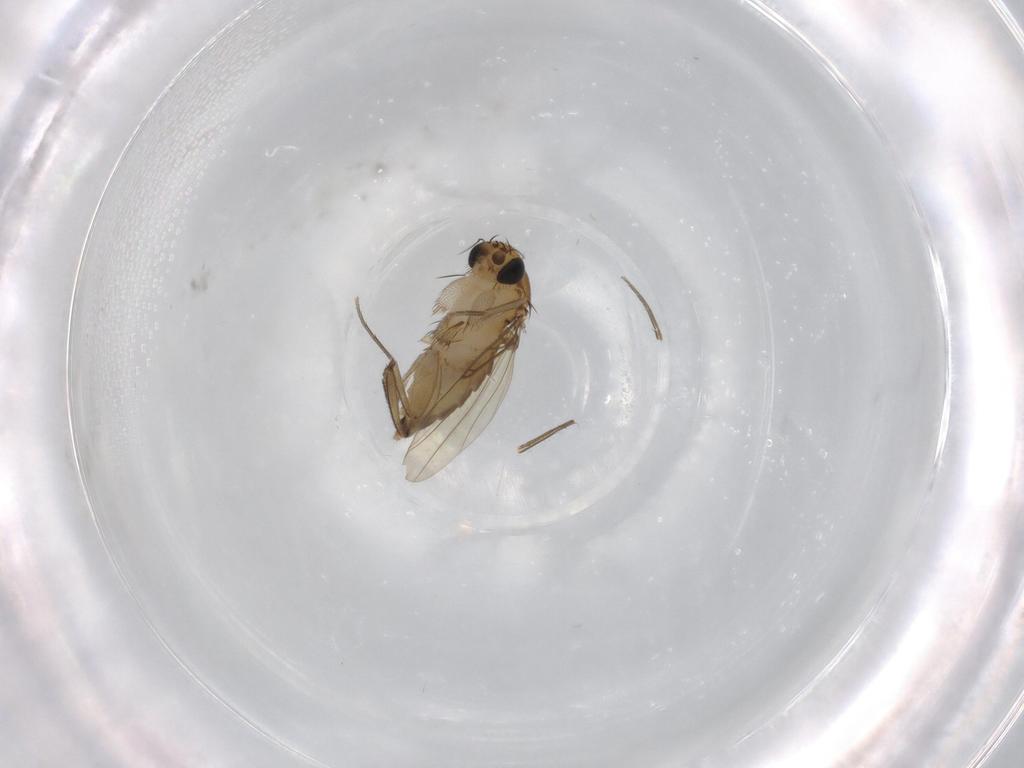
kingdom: Animalia
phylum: Arthropoda
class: Insecta
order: Diptera
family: Phoridae
